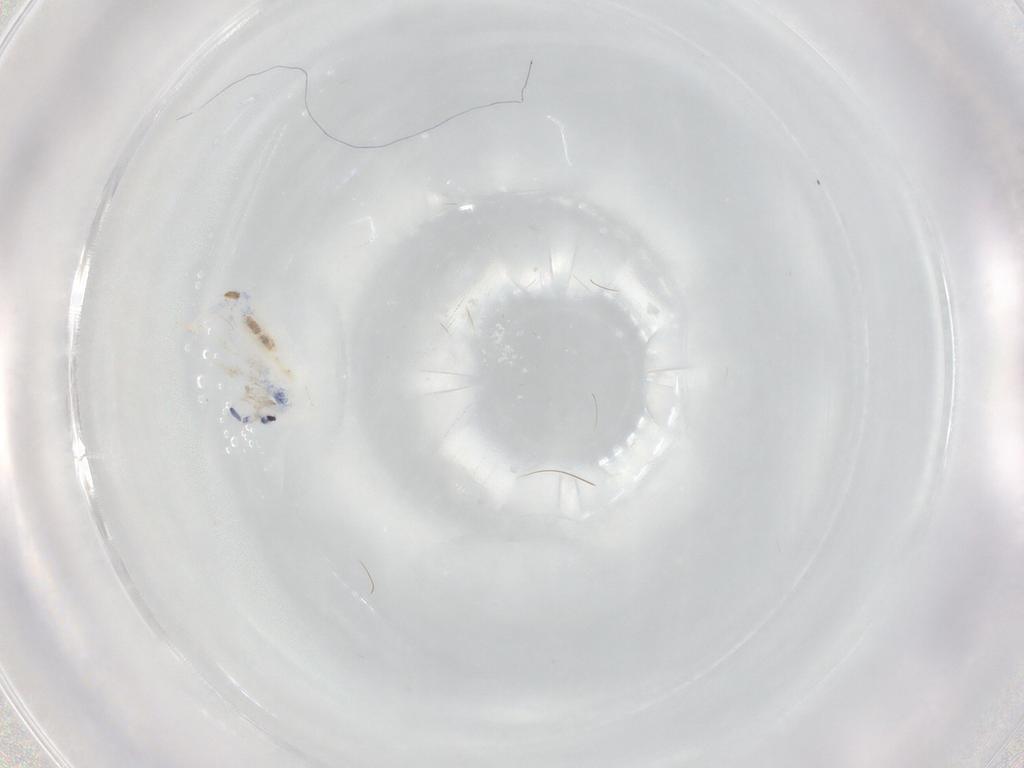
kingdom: Animalia
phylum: Arthropoda
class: Collembola
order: Entomobryomorpha
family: Entomobryidae
